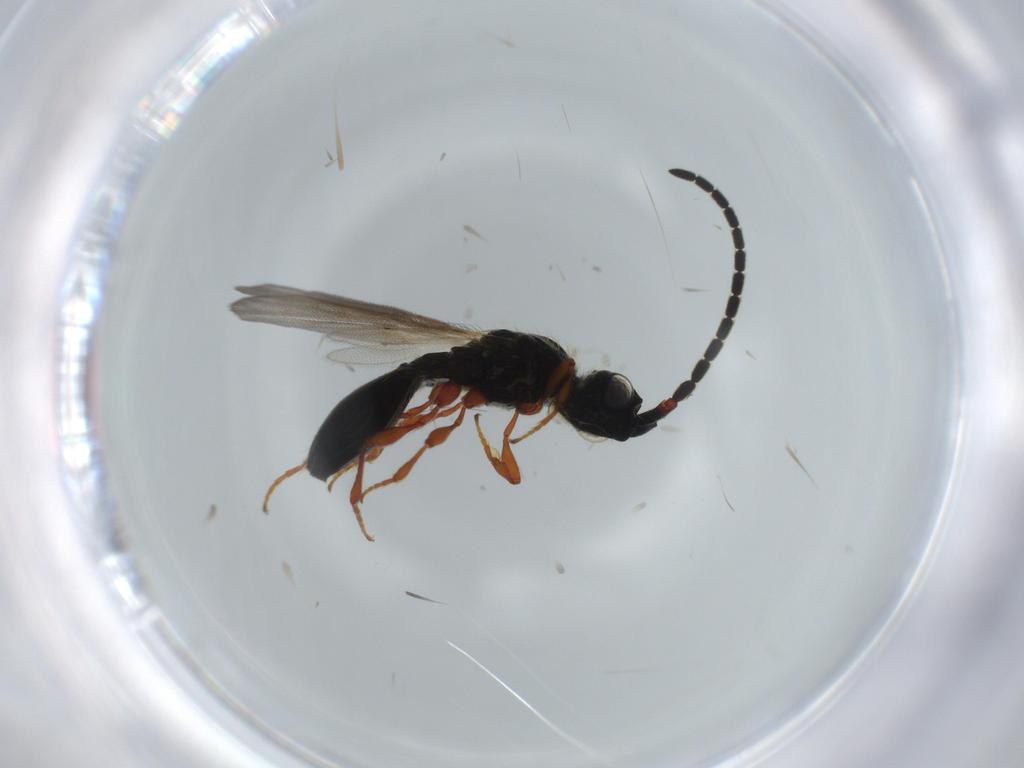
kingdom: Animalia
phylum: Arthropoda
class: Insecta
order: Hymenoptera
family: Diapriidae
